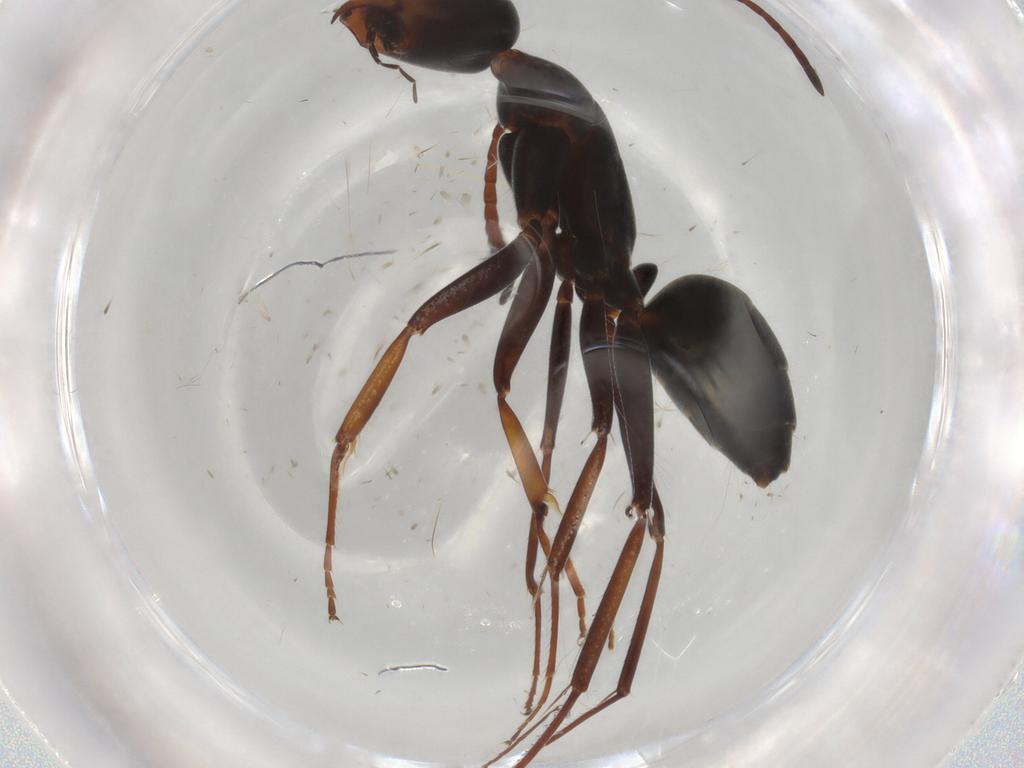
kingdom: Animalia
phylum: Arthropoda
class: Insecta
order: Hymenoptera
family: Formicidae
